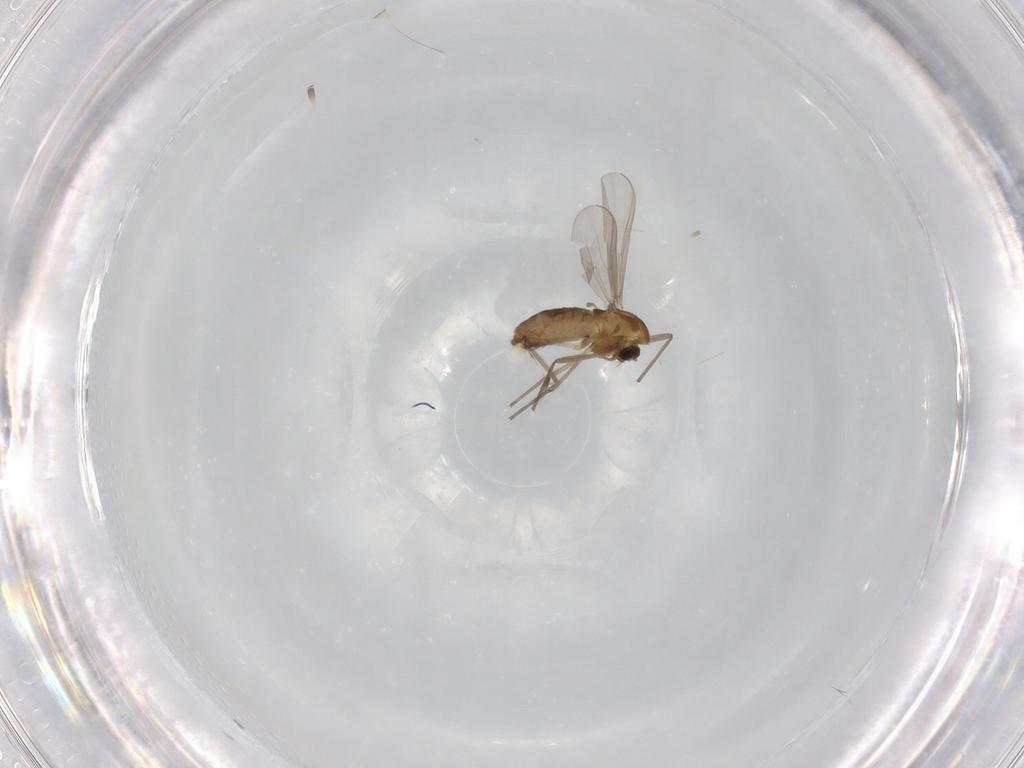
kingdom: Animalia
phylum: Arthropoda
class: Insecta
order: Diptera
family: Chironomidae
